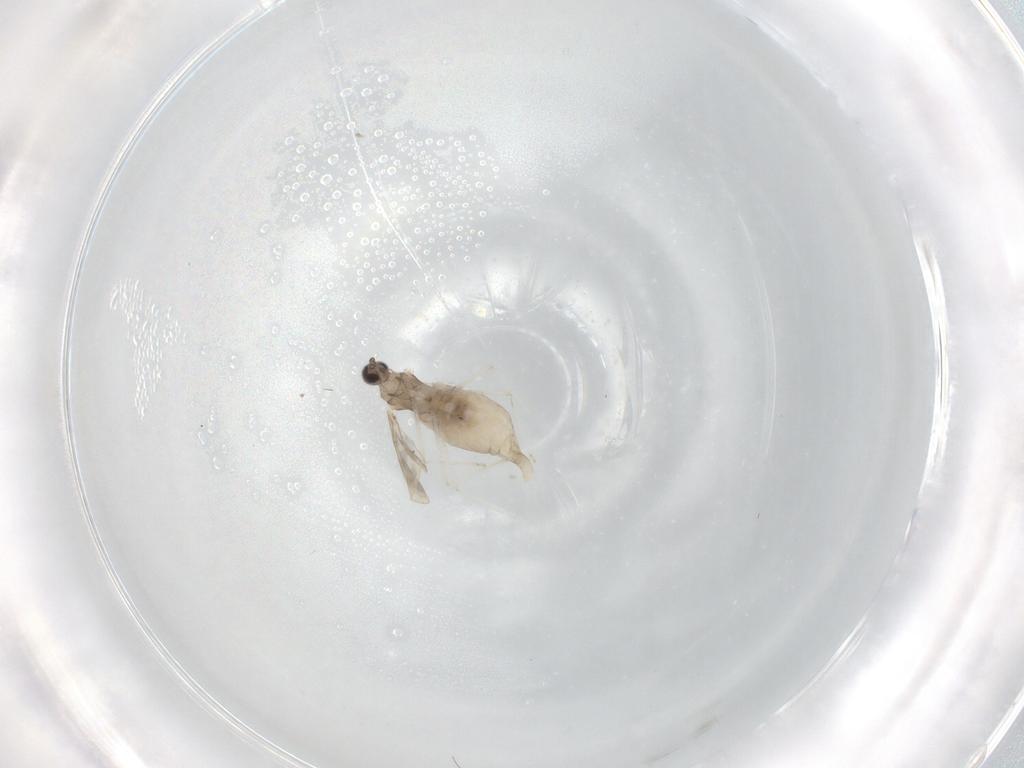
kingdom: Animalia
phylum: Arthropoda
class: Insecta
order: Diptera
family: Cecidomyiidae
